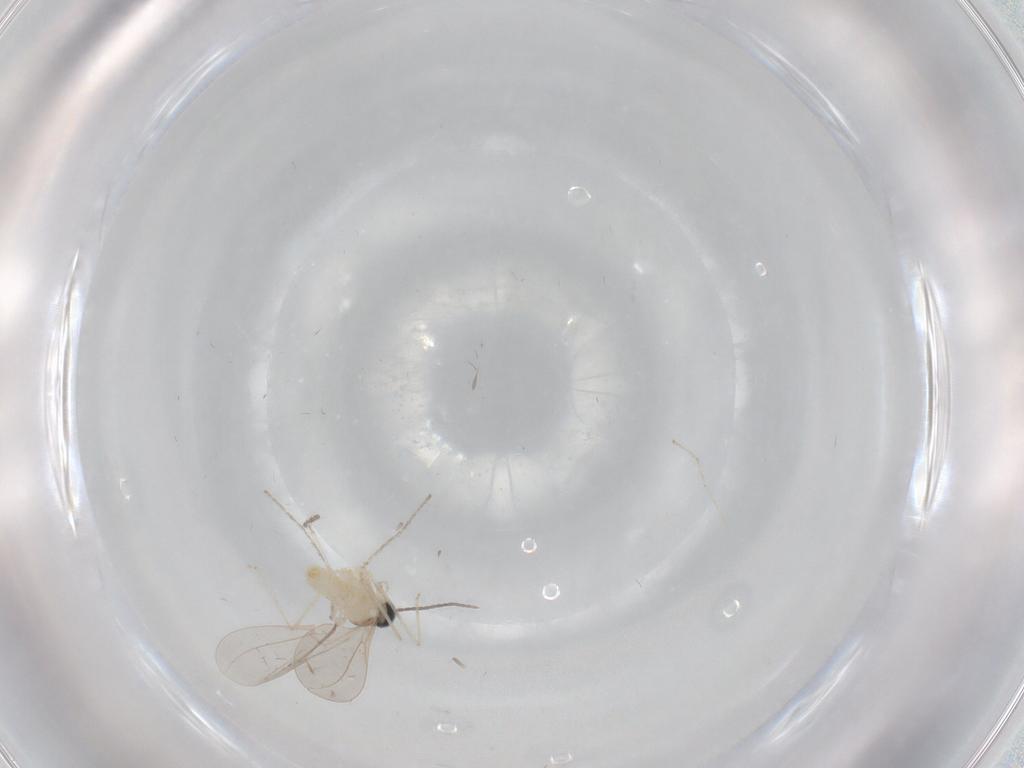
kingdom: Animalia
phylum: Arthropoda
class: Insecta
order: Diptera
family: Cecidomyiidae
